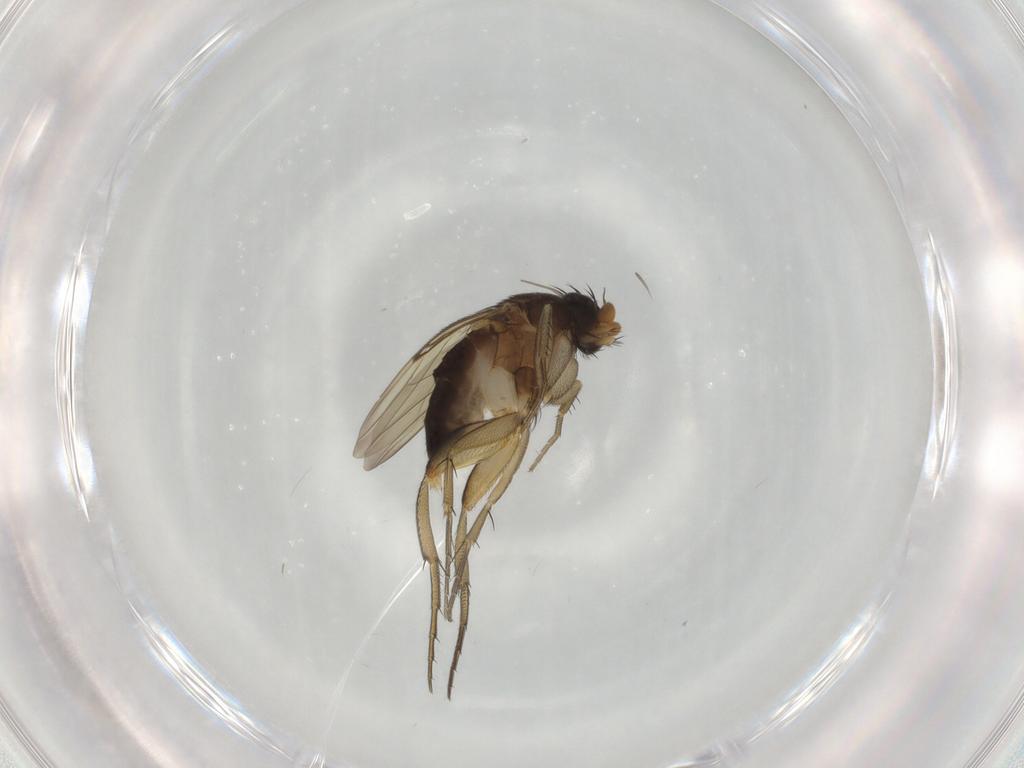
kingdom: Animalia
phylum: Arthropoda
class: Insecta
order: Diptera
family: Phoridae
